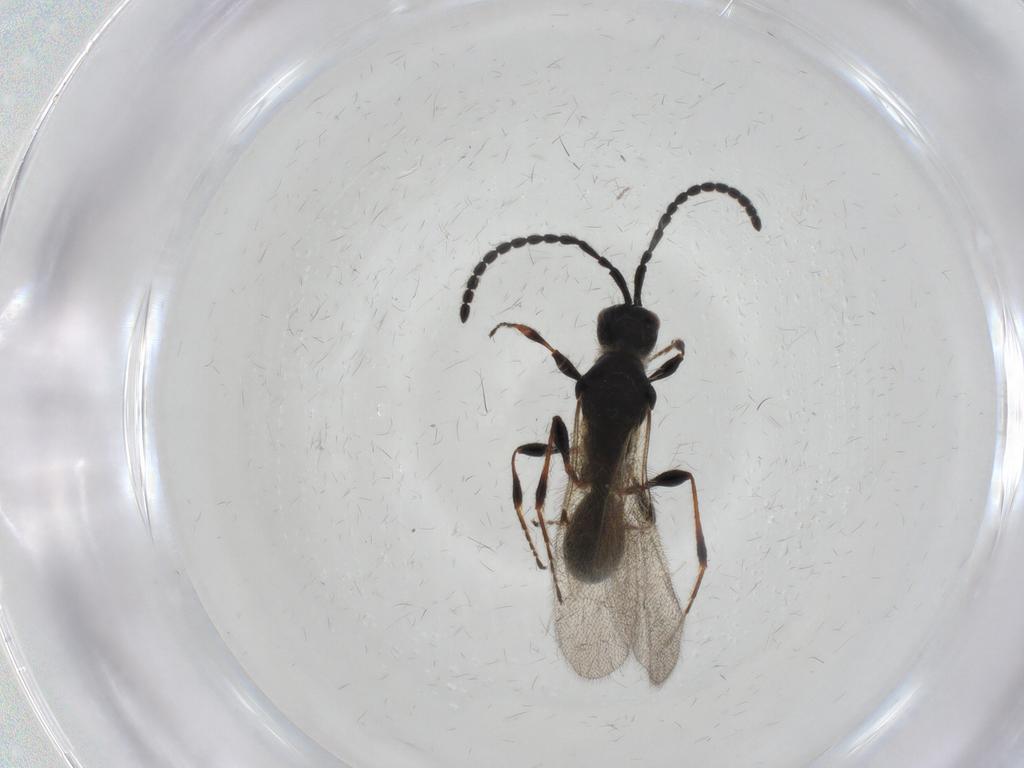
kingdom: Animalia
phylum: Arthropoda
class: Insecta
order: Hymenoptera
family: Diapriidae
